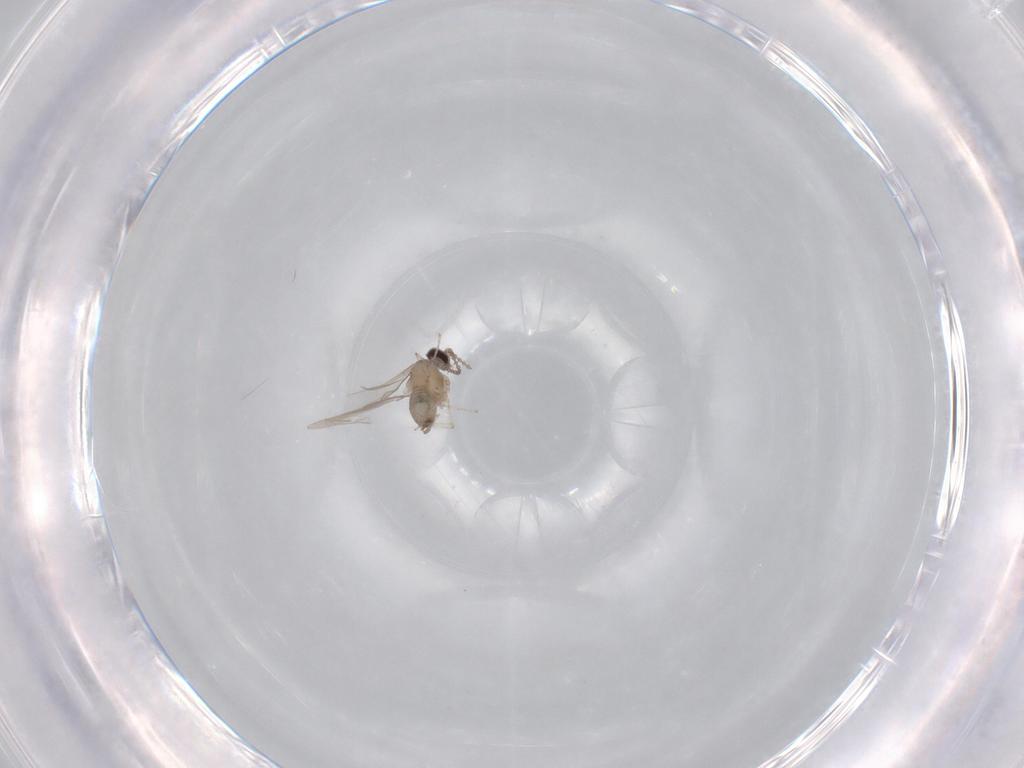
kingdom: Animalia
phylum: Arthropoda
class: Insecta
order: Diptera
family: Cecidomyiidae
